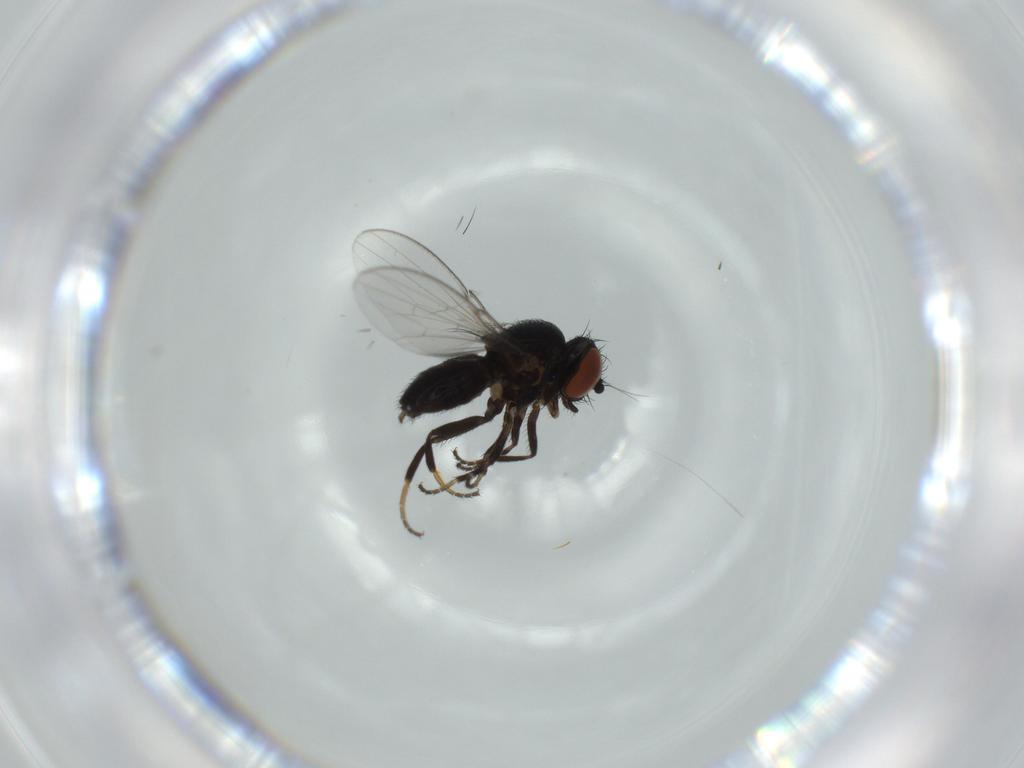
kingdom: Animalia
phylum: Arthropoda
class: Insecta
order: Diptera
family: Milichiidae
